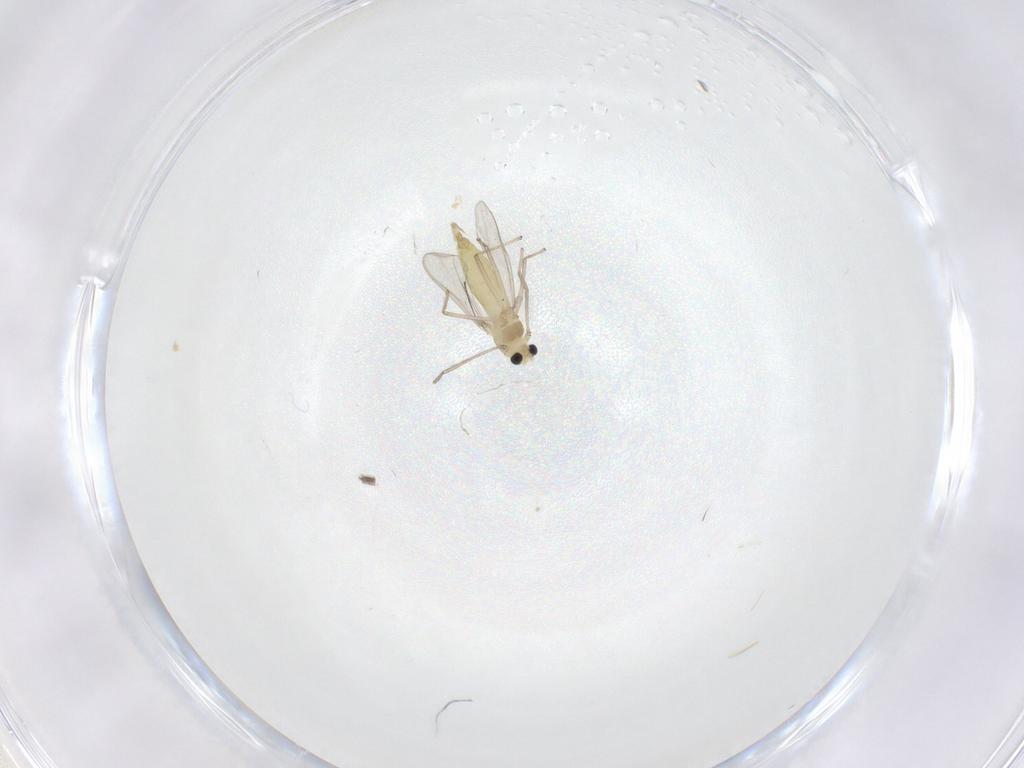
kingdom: Animalia
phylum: Arthropoda
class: Insecta
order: Diptera
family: Chironomidae
